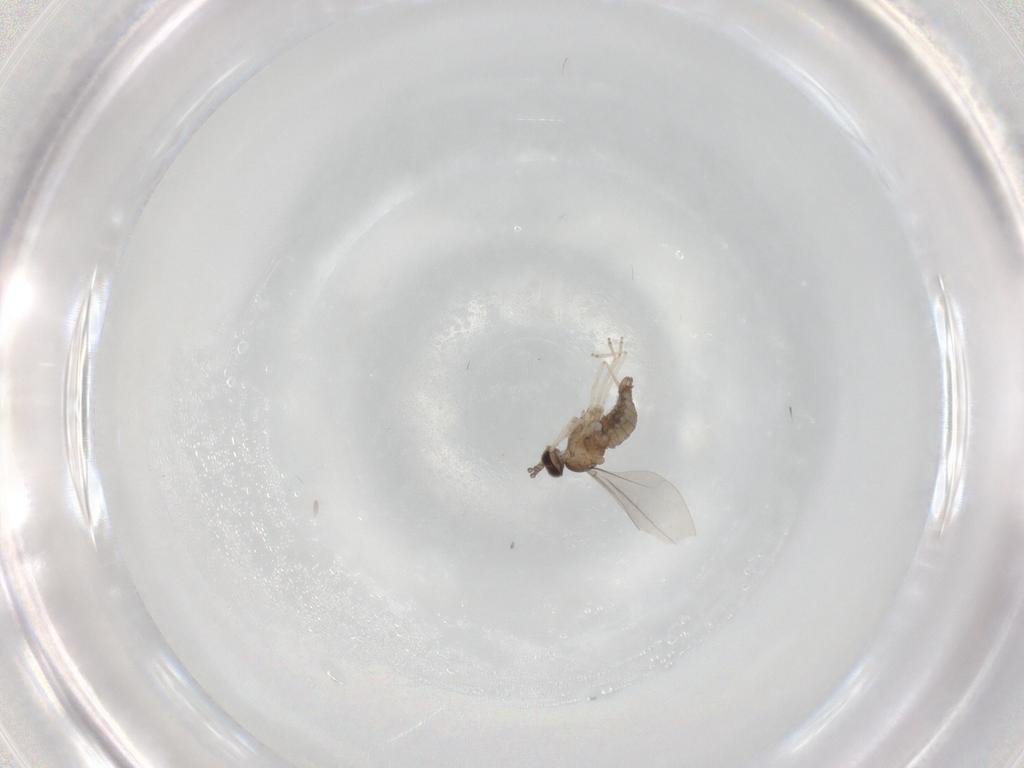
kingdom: Animalia
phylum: Arthropoda
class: Insecta
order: Diptera
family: Cecidomyiidae
